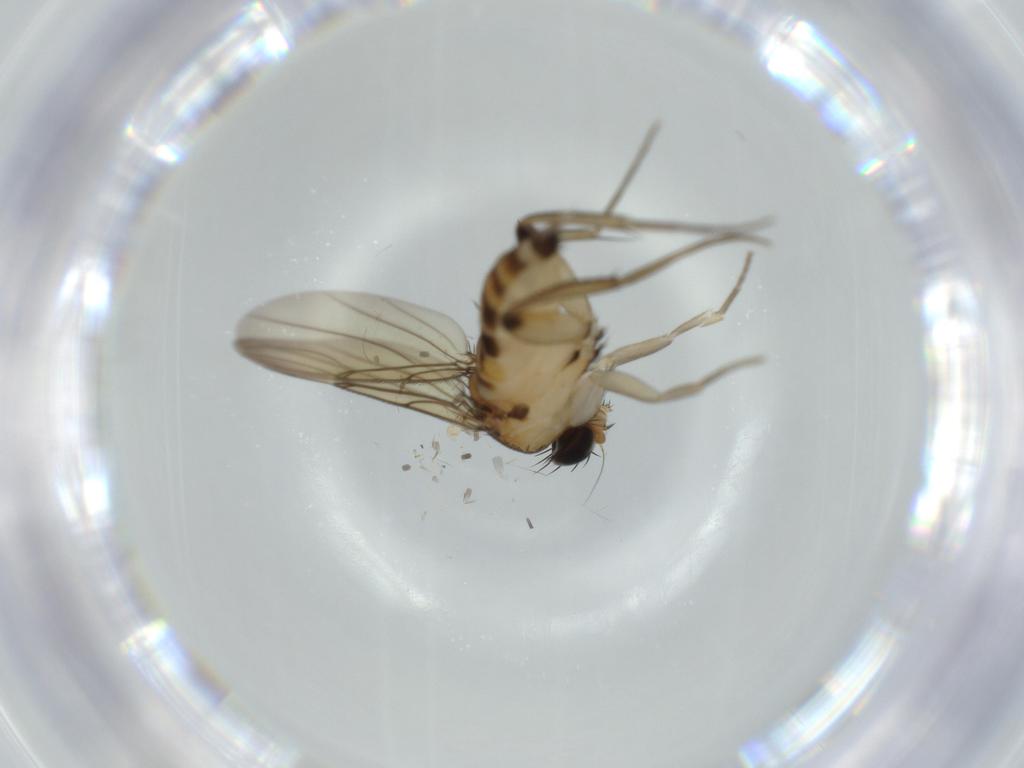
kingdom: Animalia
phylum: Arthropoda
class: Insecta
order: Diptera
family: Phoridae
